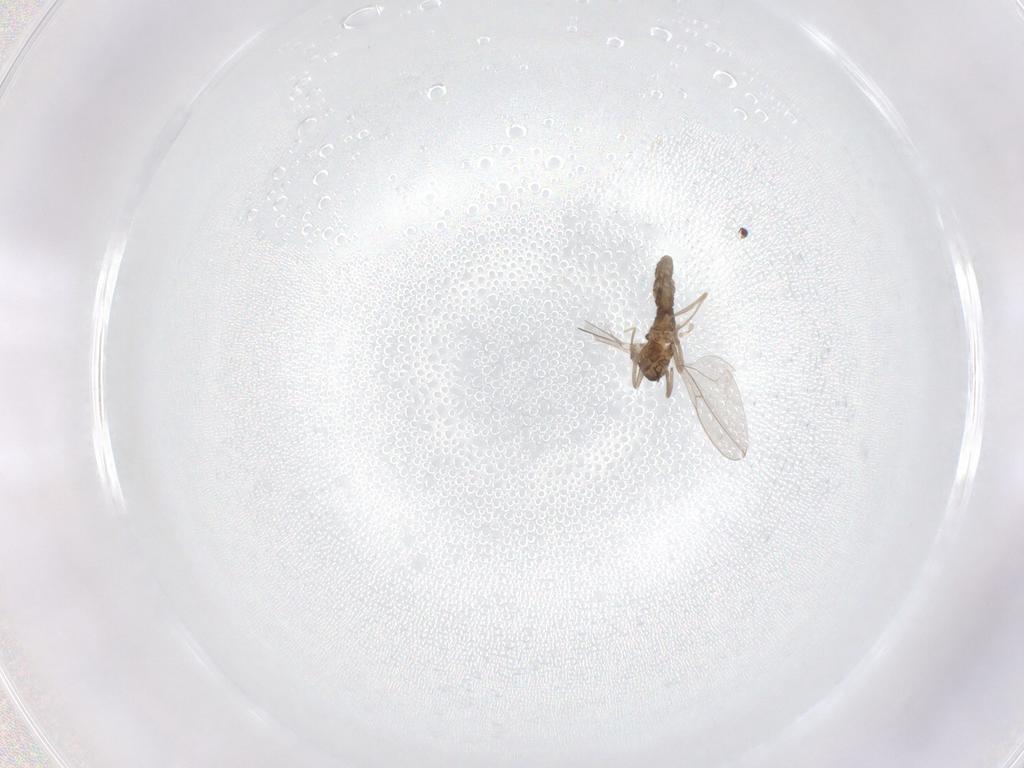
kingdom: Animalia
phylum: Arthropoda
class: Insecta
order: Diptera
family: Cecidomyiidae
